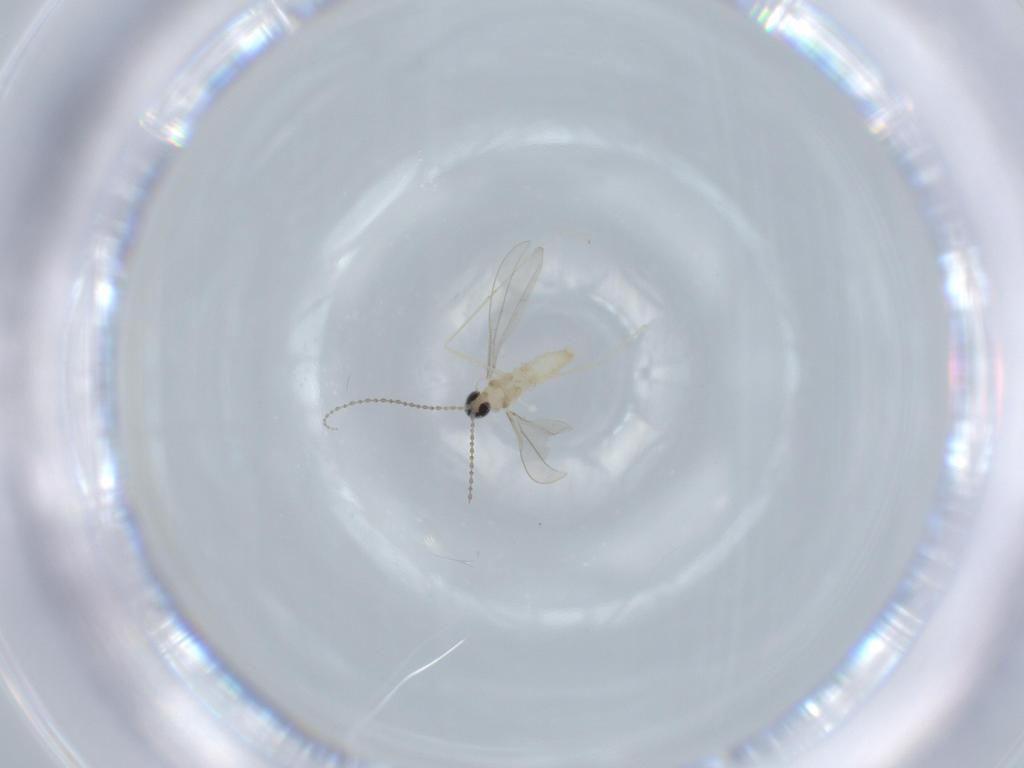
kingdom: Animalia
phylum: Arthropoda
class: Insecta
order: Diptera
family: Cecidomyiidae
